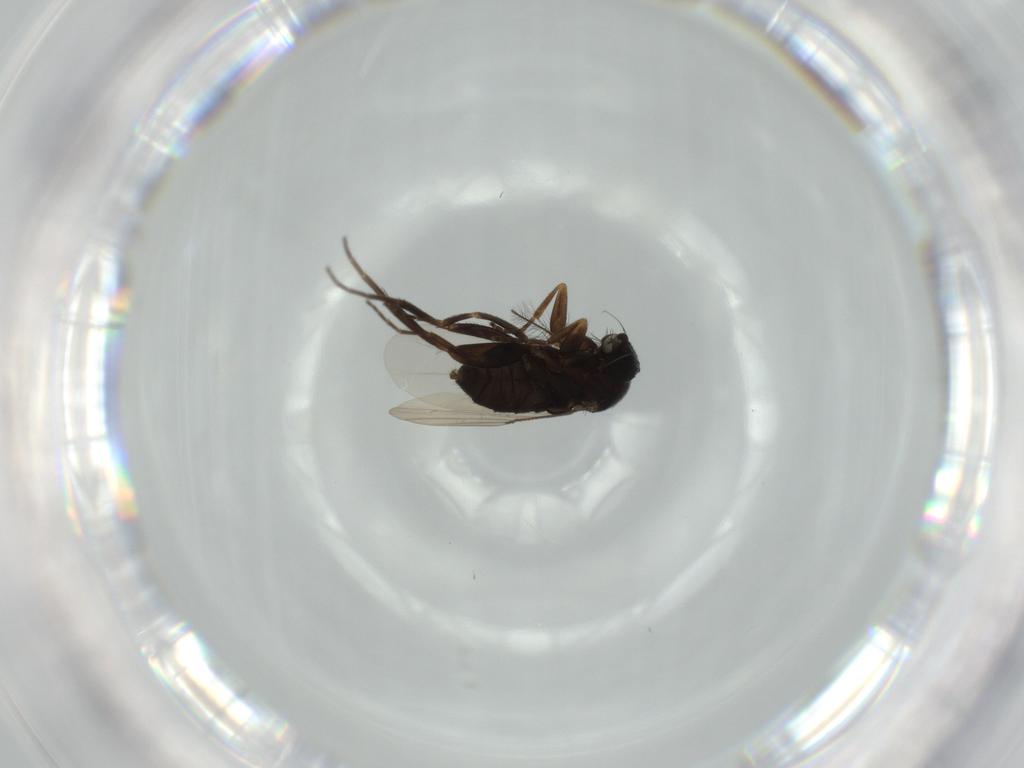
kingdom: Animalia
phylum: Arthropoda
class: Insecta
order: Diptera
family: Phoridae
